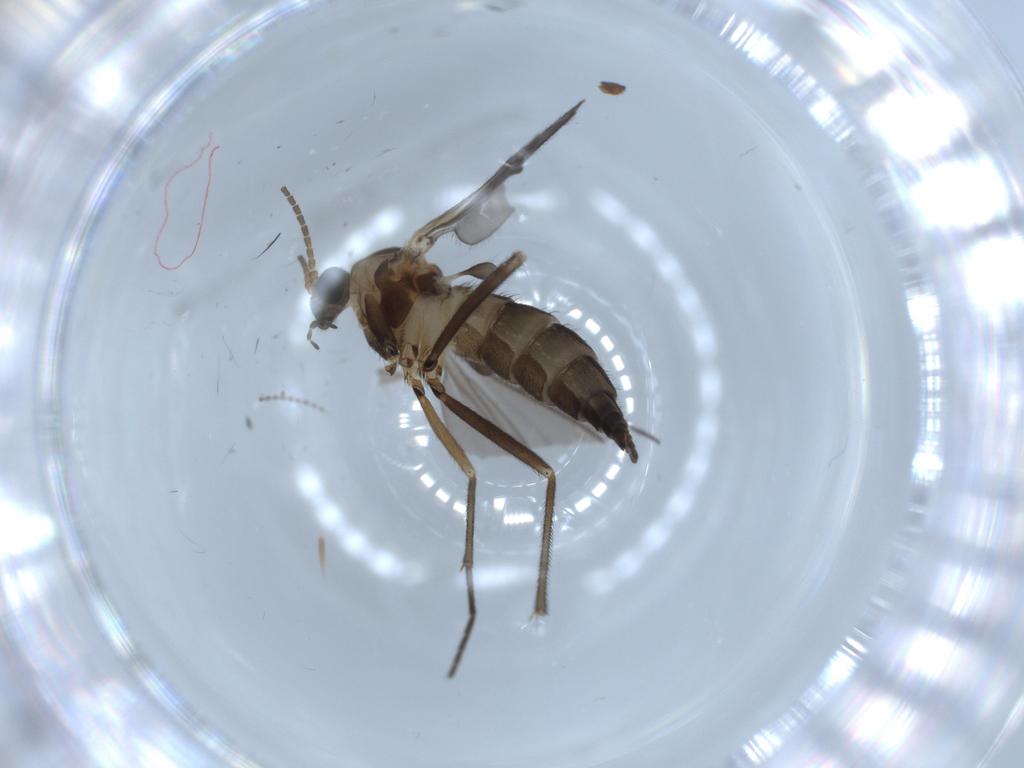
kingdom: Animalia
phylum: Arthropoda
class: Insecta
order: Diptera
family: Sciaridae
